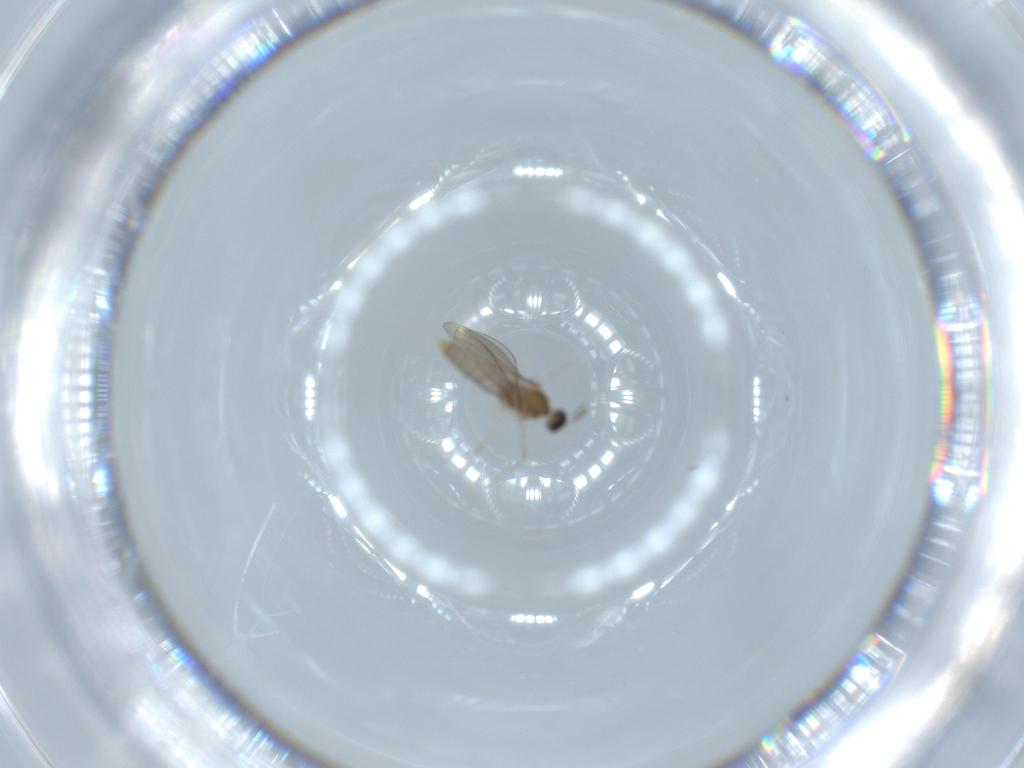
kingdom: Animalia
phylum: Arthropoda
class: Insecta
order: Diptera
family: Cecidomyiidae
